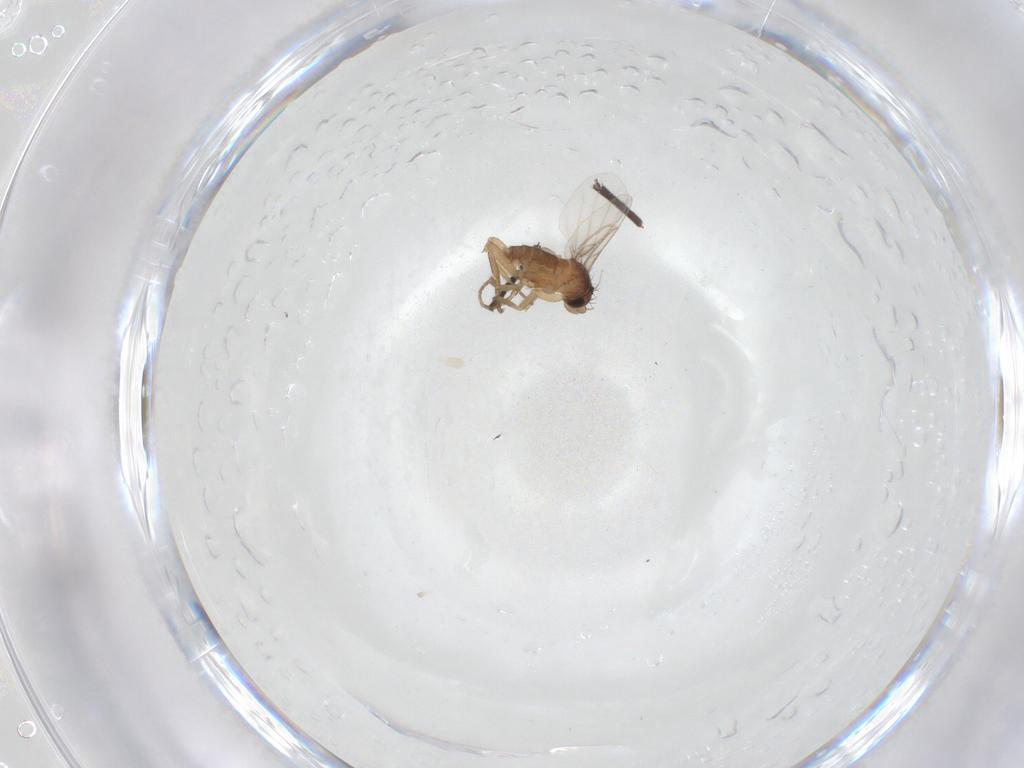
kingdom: Animalia
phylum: Arthropoda
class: Insecta
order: Diptera
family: Sciaridae
